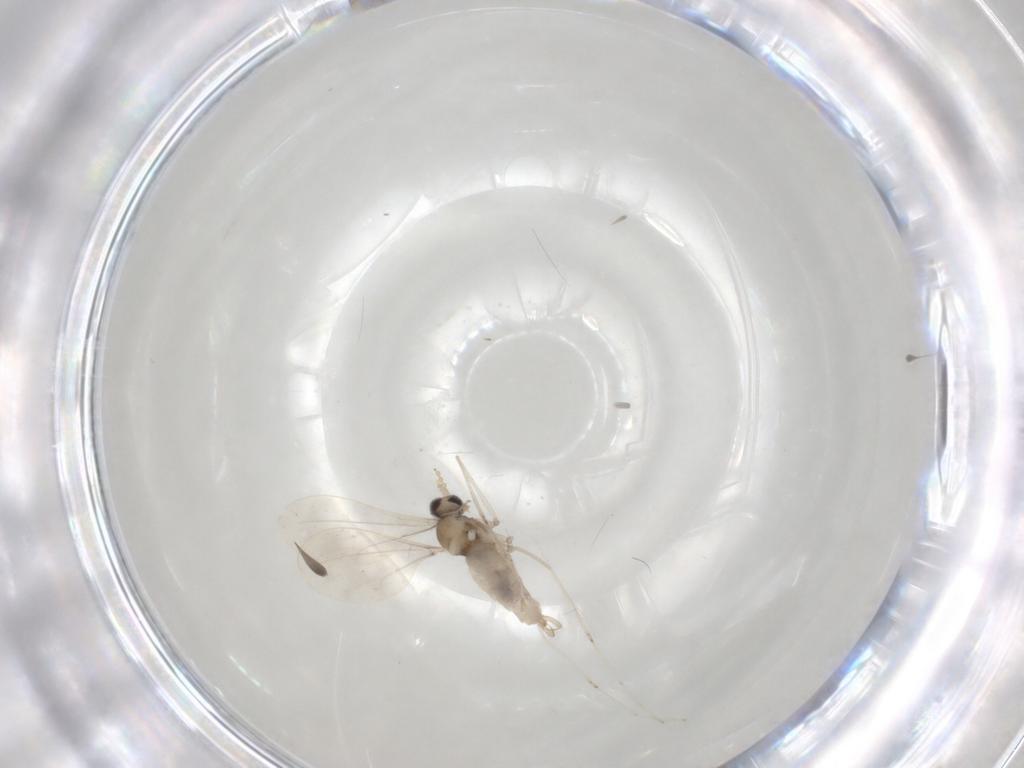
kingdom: Animalia
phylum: Arthropoda
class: Insecta
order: Diptera
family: Cecidomyiidae
